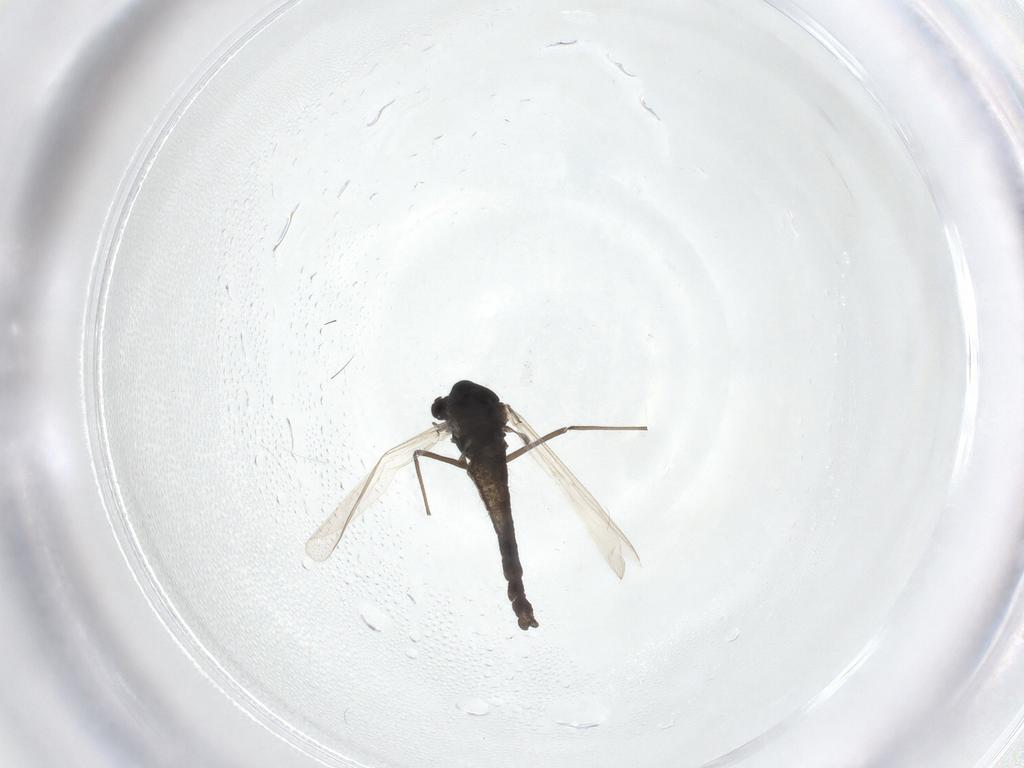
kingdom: Animalia
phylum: Arthropoda
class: Insecta
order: Diptera
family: Chironomidae
